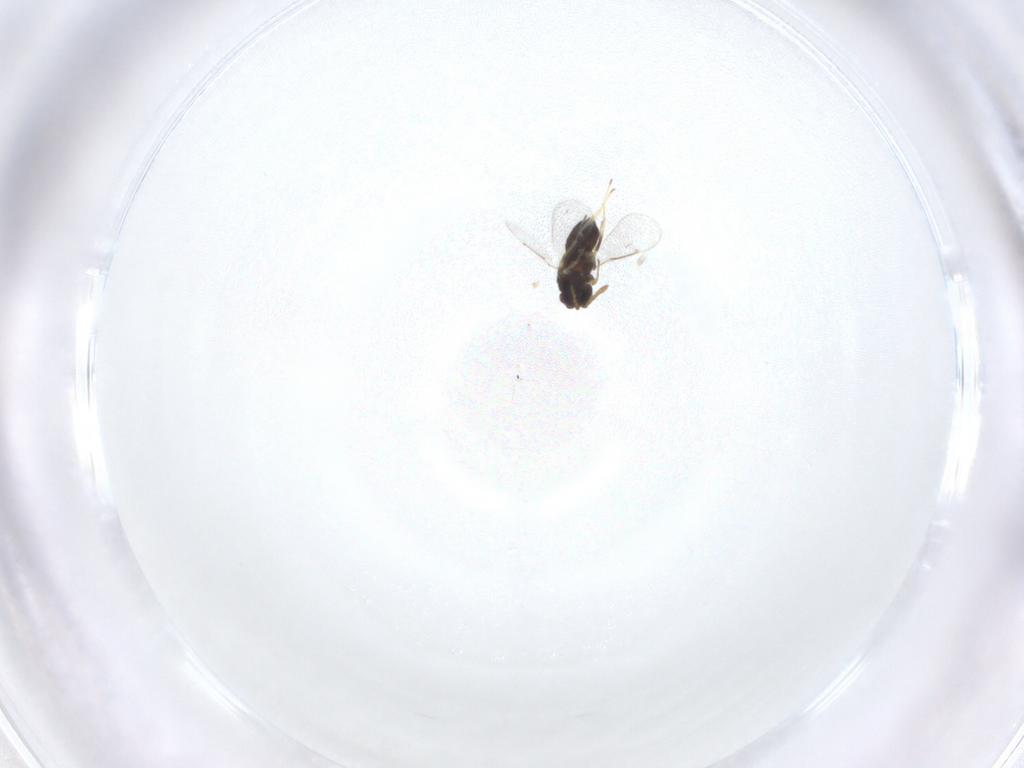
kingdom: Animalia
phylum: Arthropoda
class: Insecta
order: Hymenoptera
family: Aphelinidae
